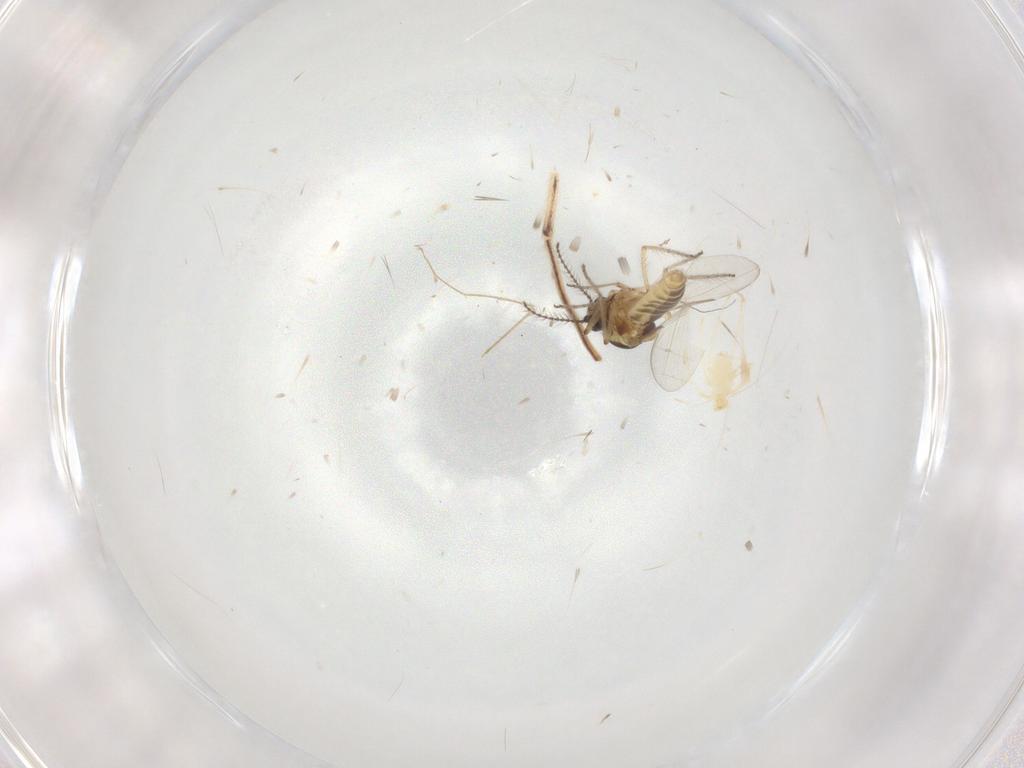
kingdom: Animalia
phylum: Arthropoda
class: Insecta
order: Diptera
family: Ceratopogonidae
